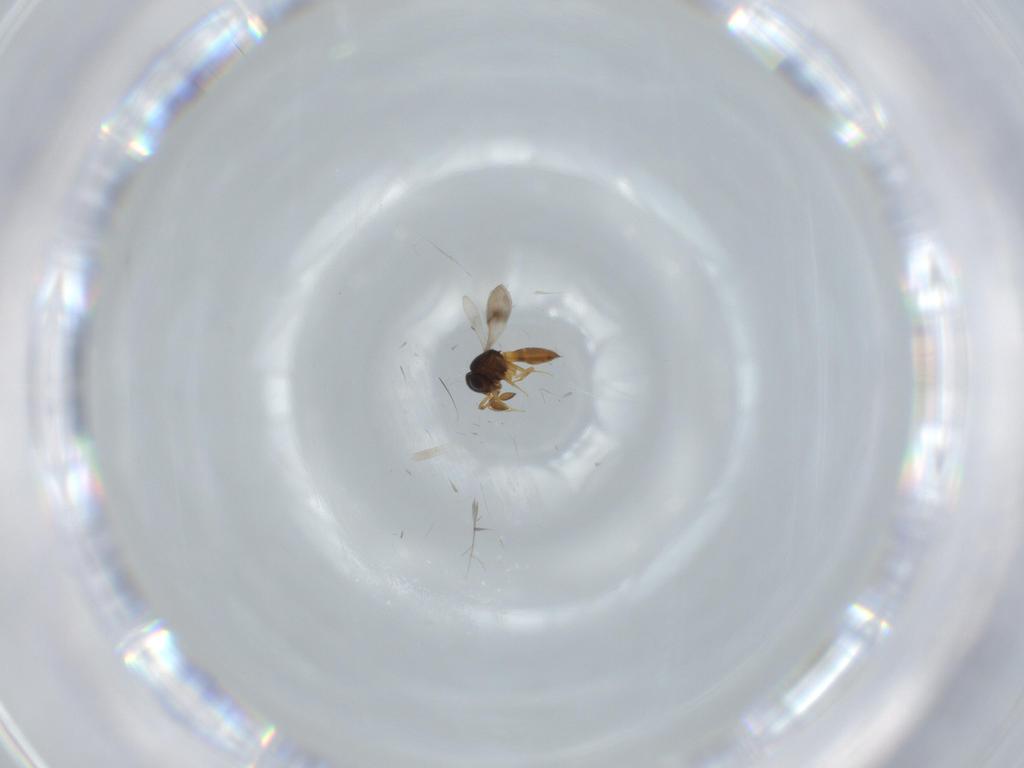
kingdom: Animalia
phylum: Arthropoda
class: Insecta
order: Hymenoptera
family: Scelionidae
